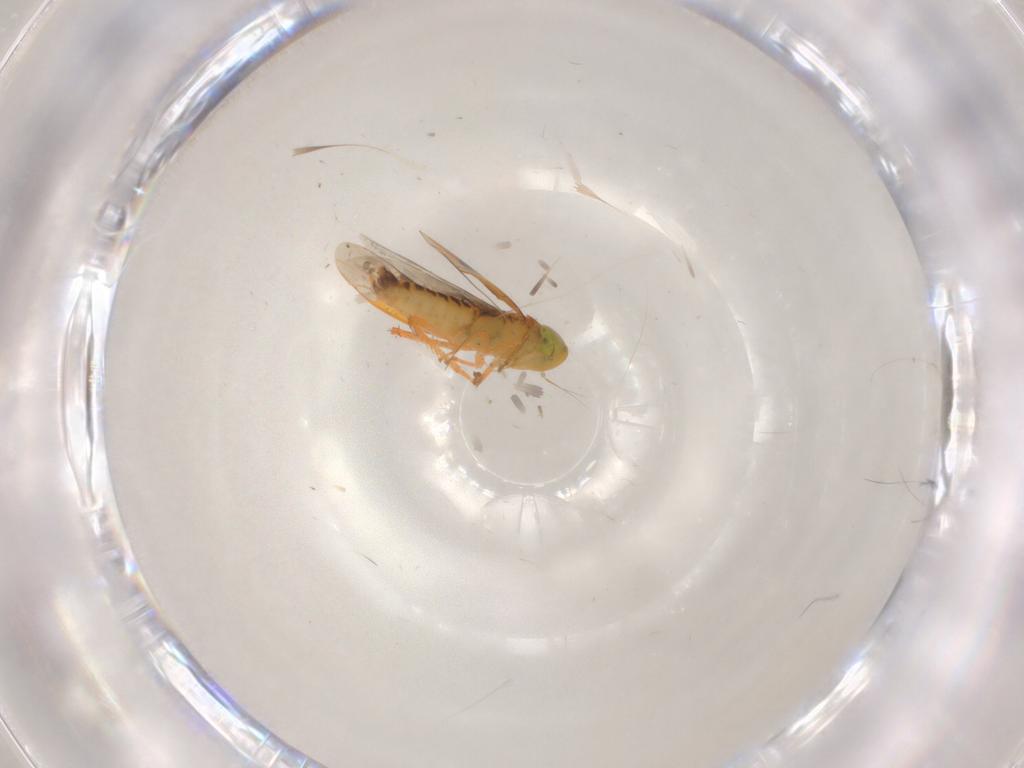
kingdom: Animalia
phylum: Arthropoda
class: Insecta
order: Hemiptera
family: Cicadellidae
